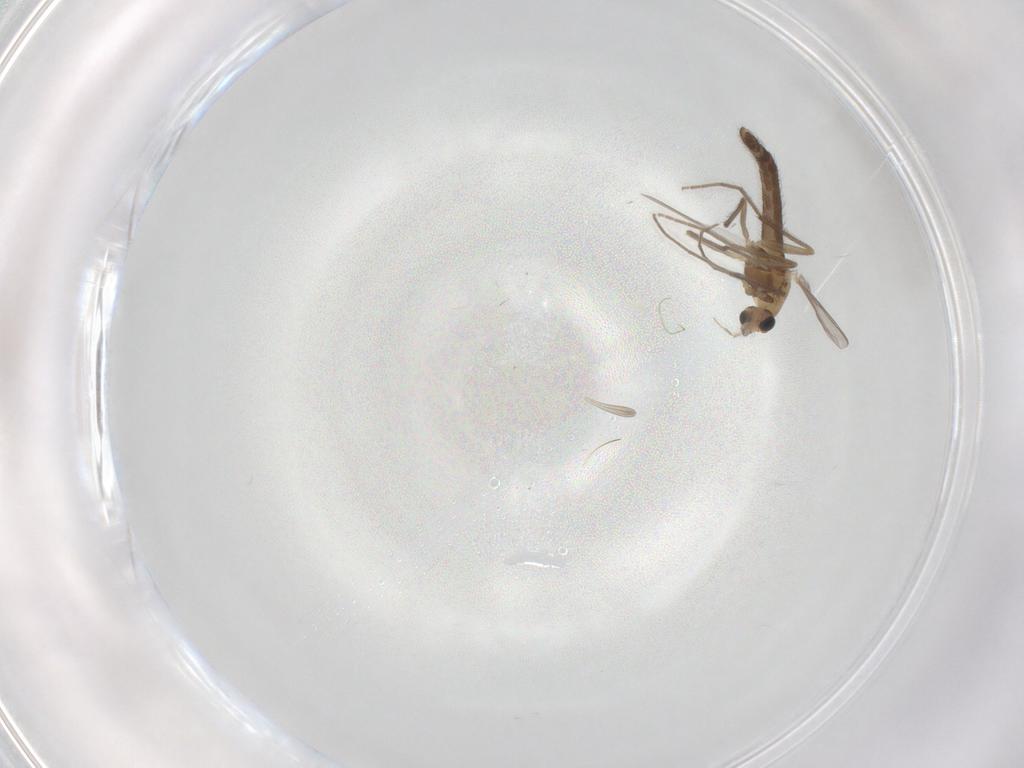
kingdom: Animalia
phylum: Arthropoda
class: Insecta
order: Diptera
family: Chironomidae
